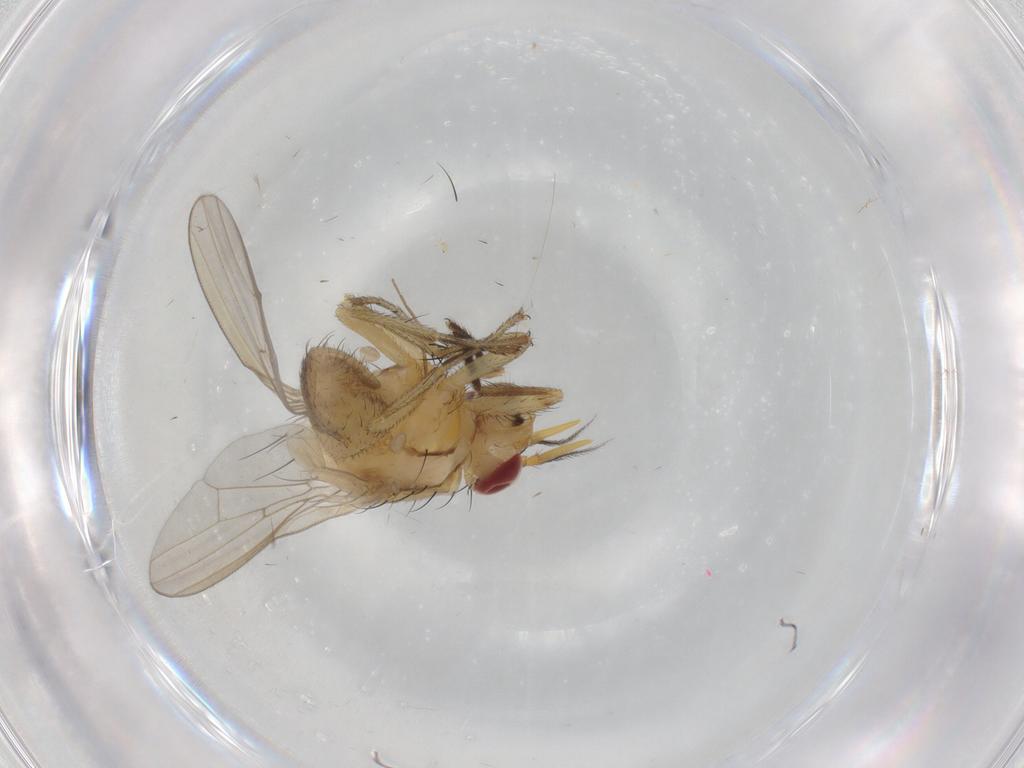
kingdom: Animalia
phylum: Arthropoda
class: Insecta
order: Diptera
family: Lauxaniidae
